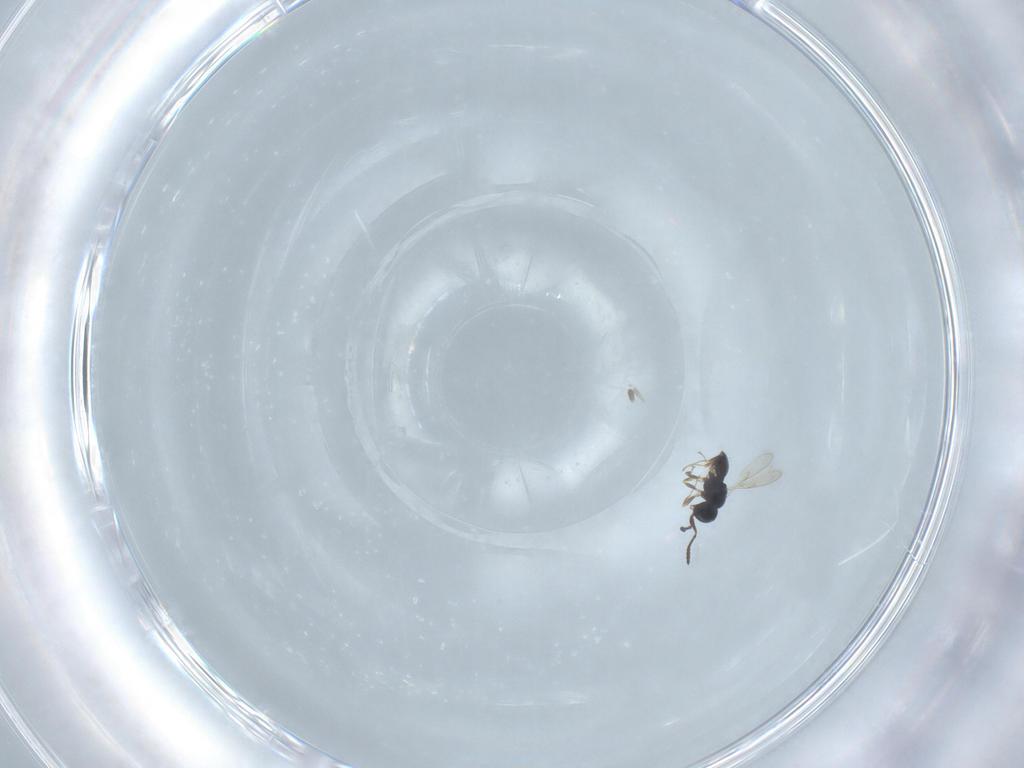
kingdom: Animalia
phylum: Arthropoda
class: Insecta
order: Hymenoptera
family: Scelionidae
